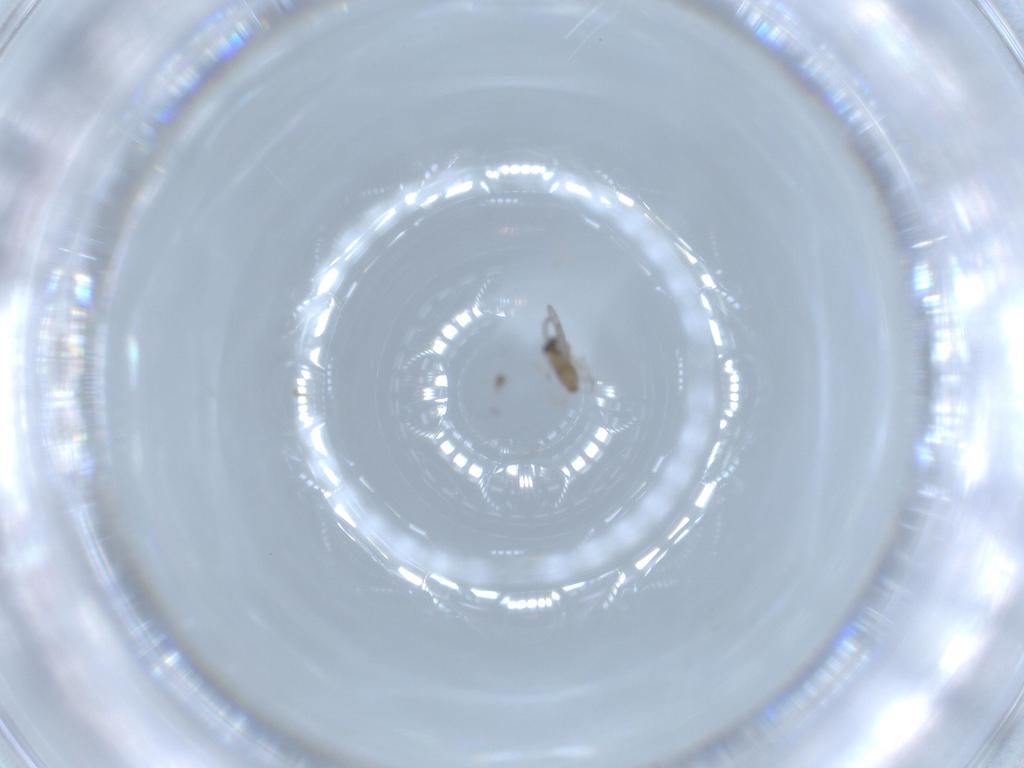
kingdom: Animalia
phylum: Arthropoda
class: Insecta
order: Diptera
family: Cecidomyiidae
